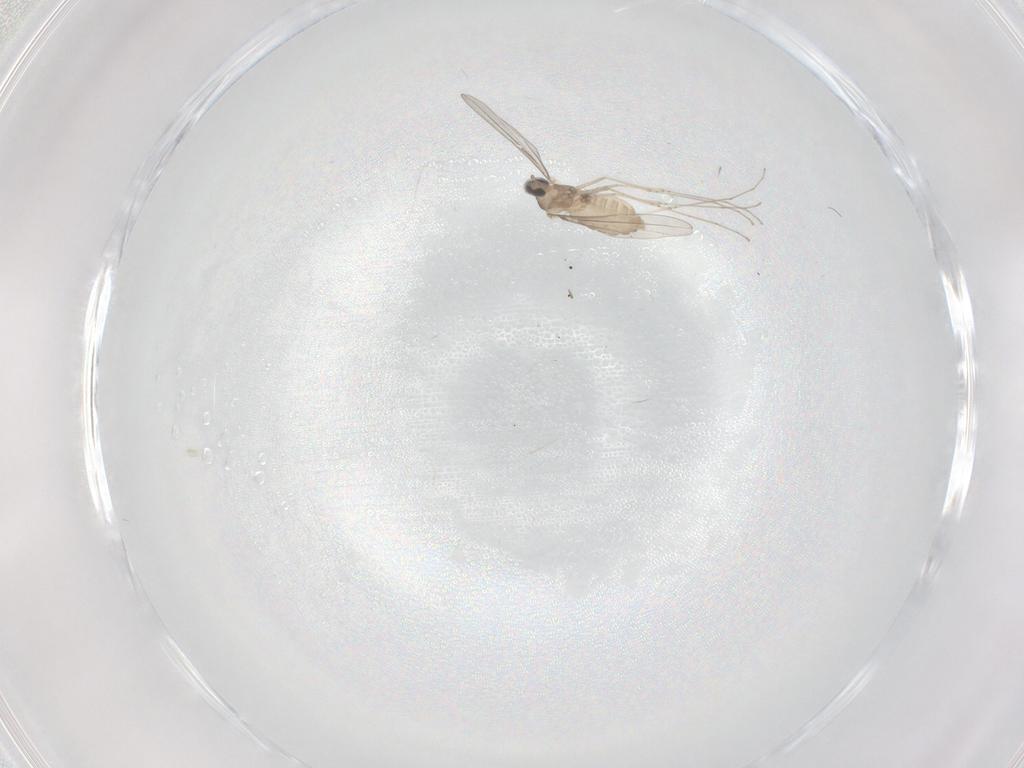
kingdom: Animalia
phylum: Arthropoda
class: Insecta
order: Diptera
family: Cecidomyiidae
